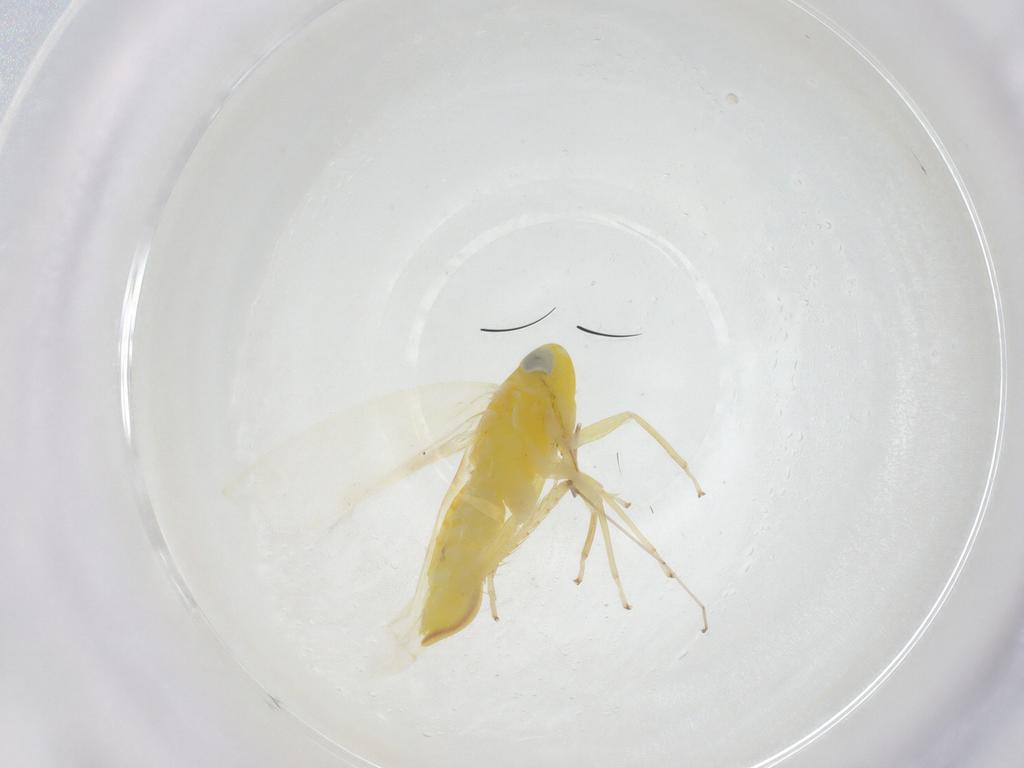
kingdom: Animalia
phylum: Arthropoda
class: Insecta
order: Hemiptera
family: Cicadellidae
